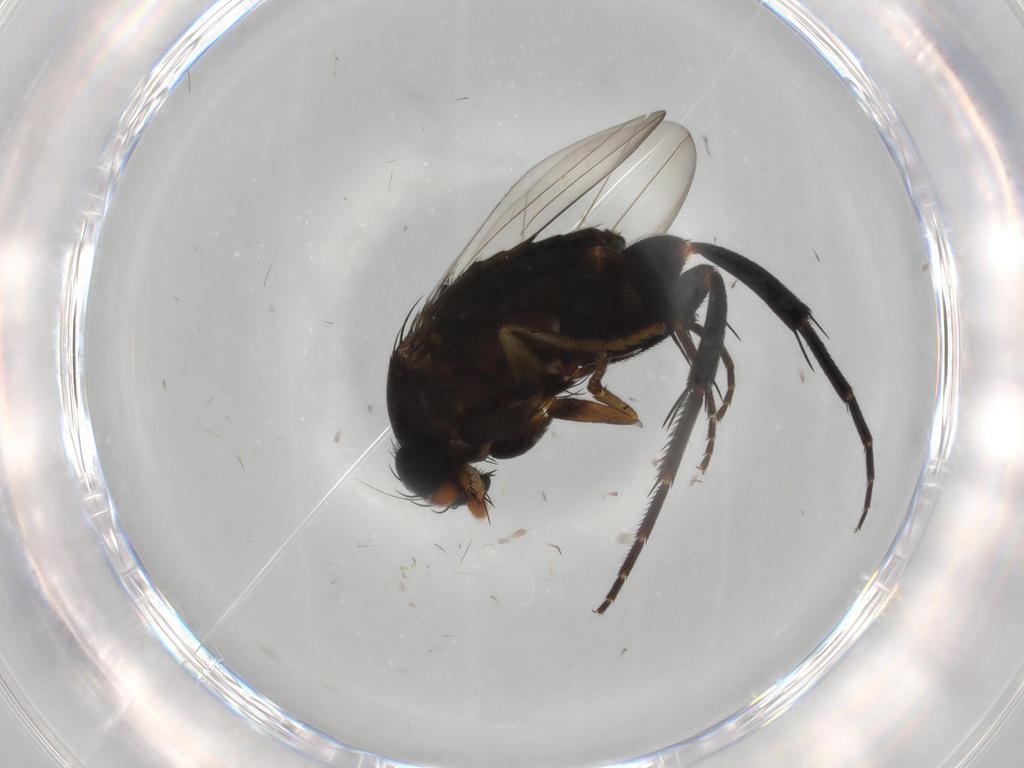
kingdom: Animalia
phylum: Arthropoda
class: Insecta
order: Diptera
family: Phoridae
